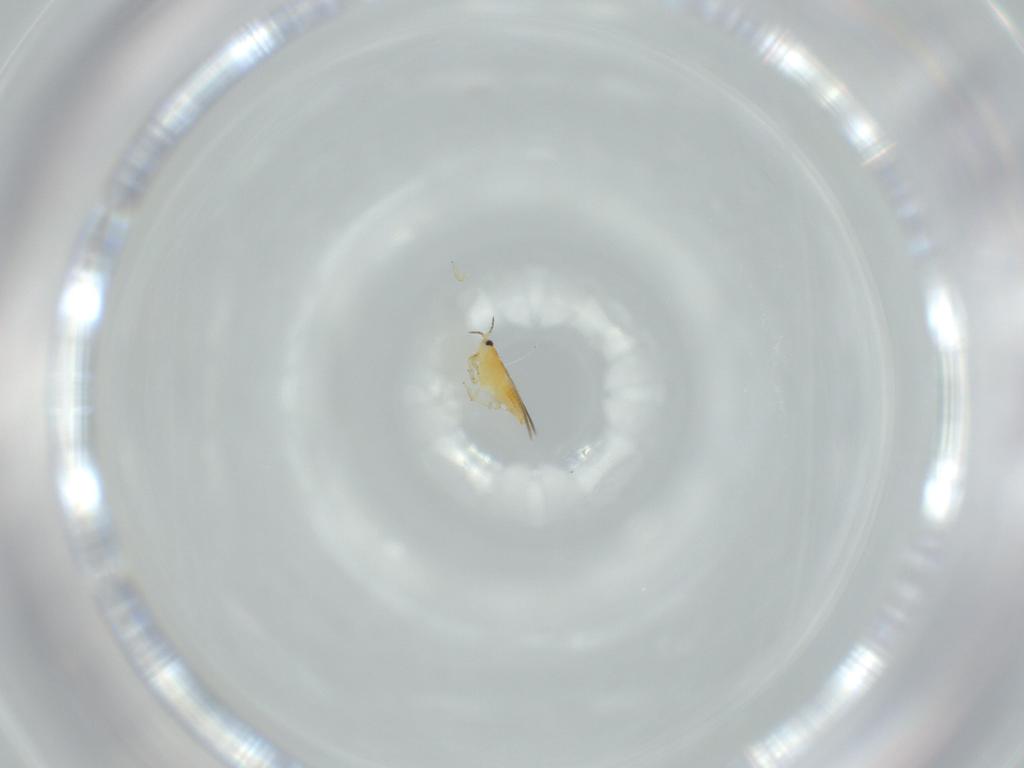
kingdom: Animalia
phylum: Arthropoda
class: Insecta
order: Thysanoptera
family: Thripidae
